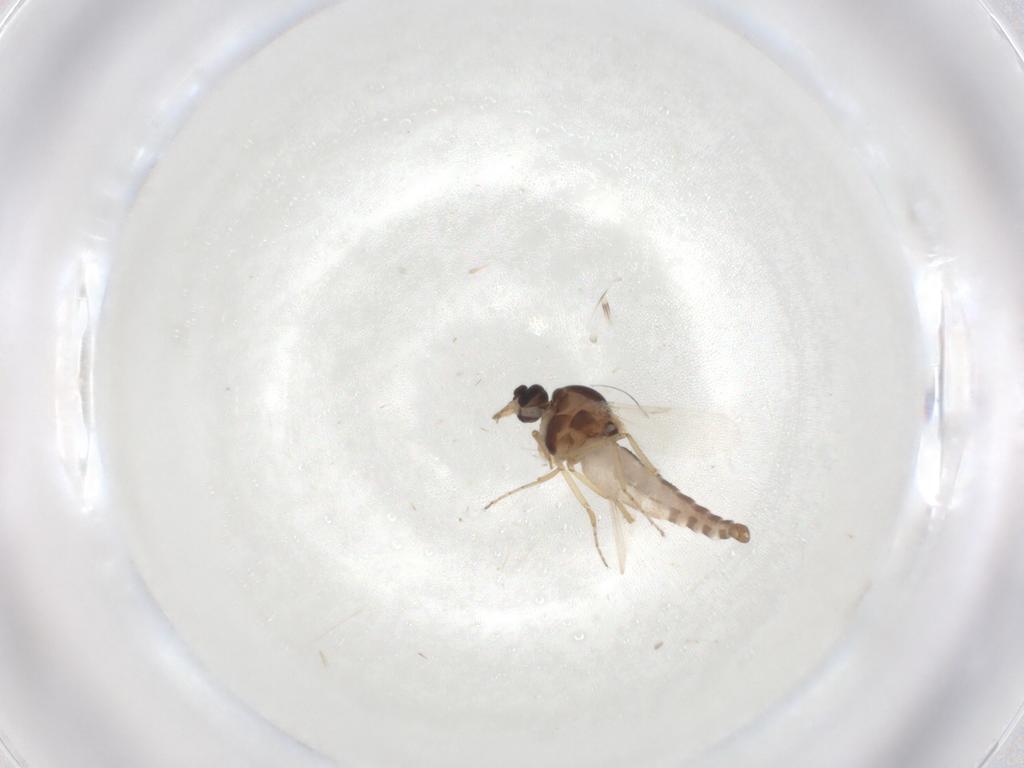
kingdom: Animalia
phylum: Arthropoda
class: Insecta
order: Diptera
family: Ceratopogonidae
